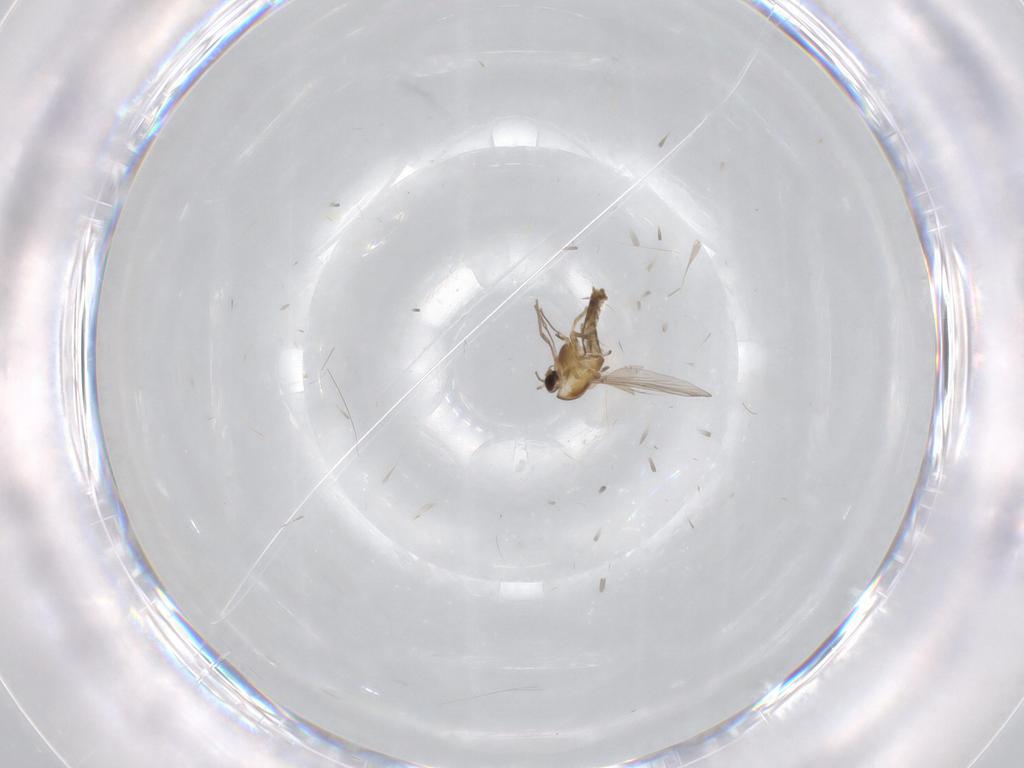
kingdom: Animalia
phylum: Arthropoda
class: Insecta
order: Diptera
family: Chironomidae
